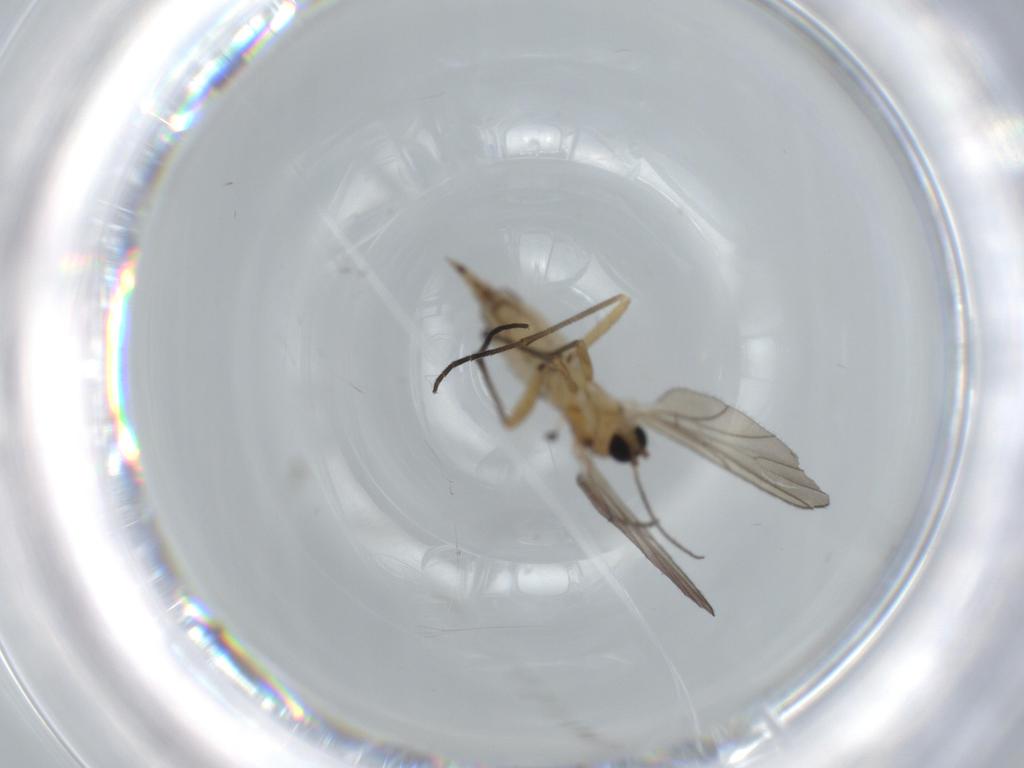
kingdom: Animalia
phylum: Arthropoda
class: Insecta
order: Diptera
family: Sciaridae
